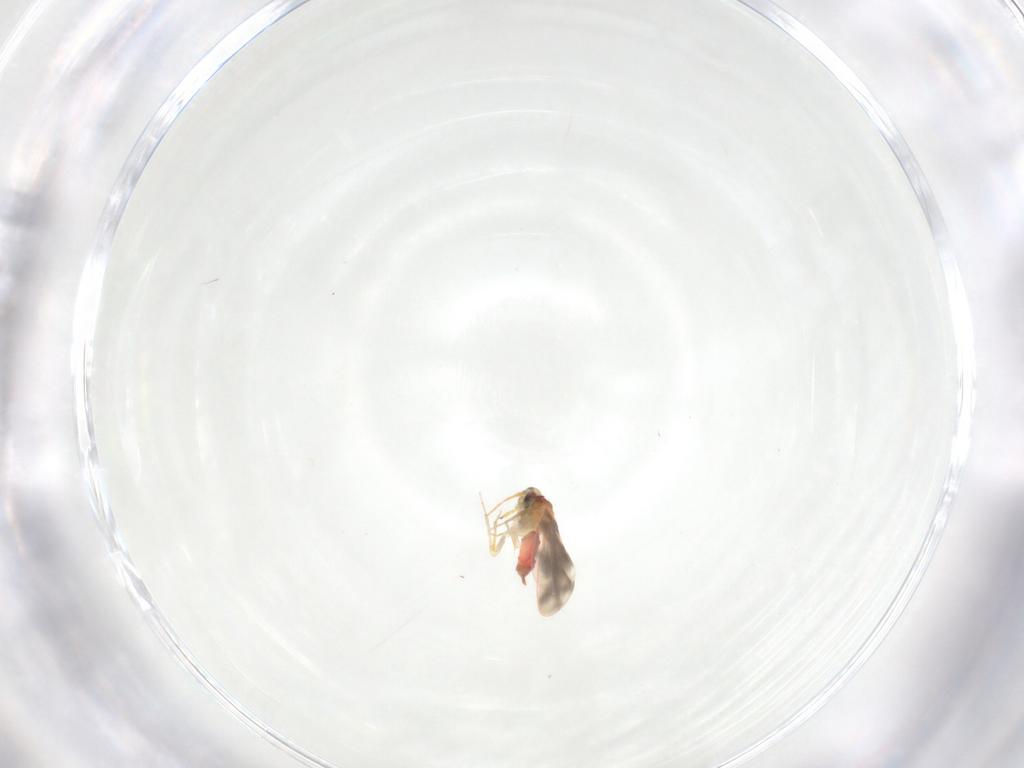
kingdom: Animalia
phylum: Arthropoda
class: Insecta
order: Hemiptera
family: Aleyrodidae
